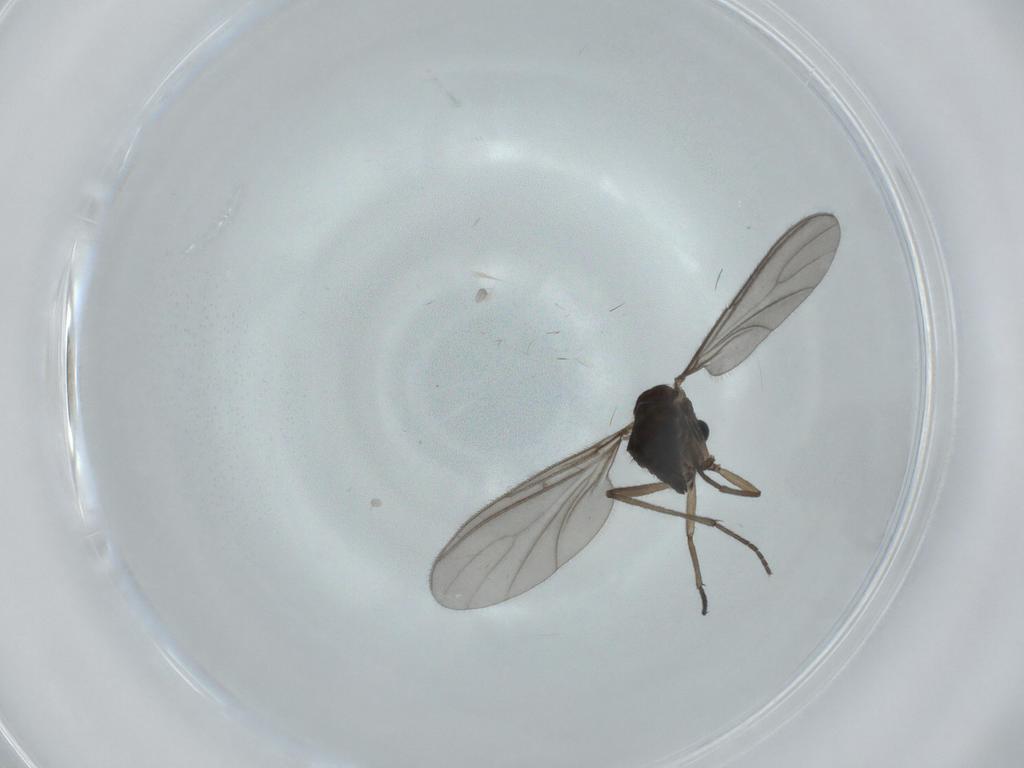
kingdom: Animalia
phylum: Arthropoda
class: Insecta
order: Diptera
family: Sciaridae
